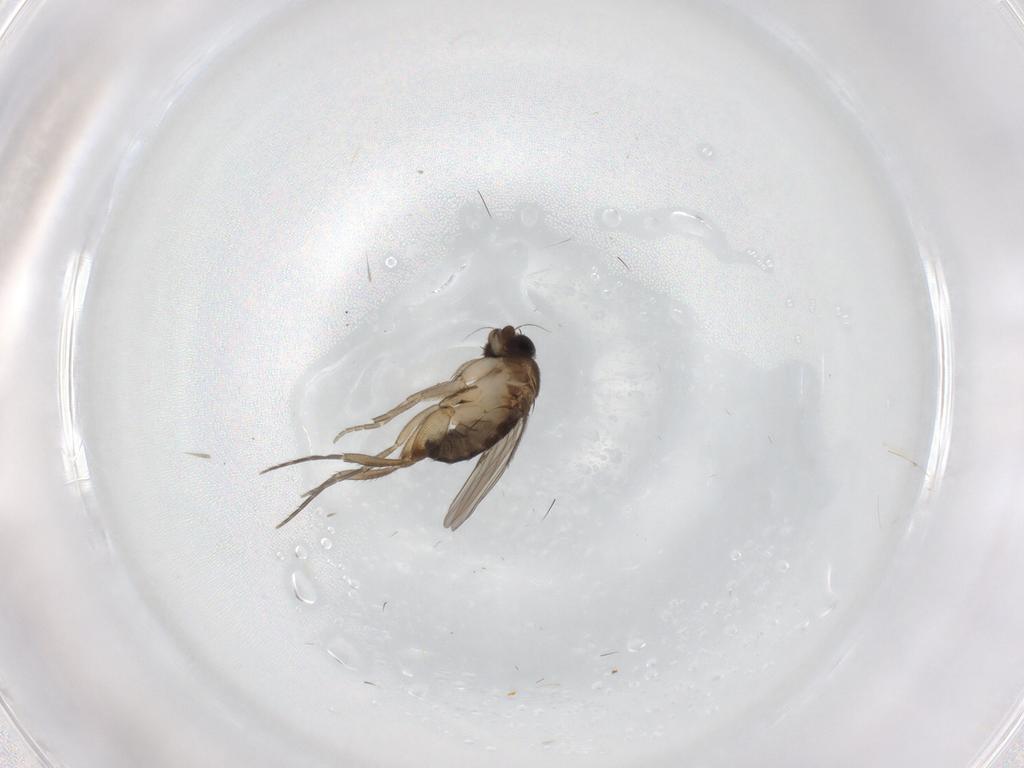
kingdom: Animalia
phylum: Arthropoda
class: Insecta
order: Diptera
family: Phoridae
